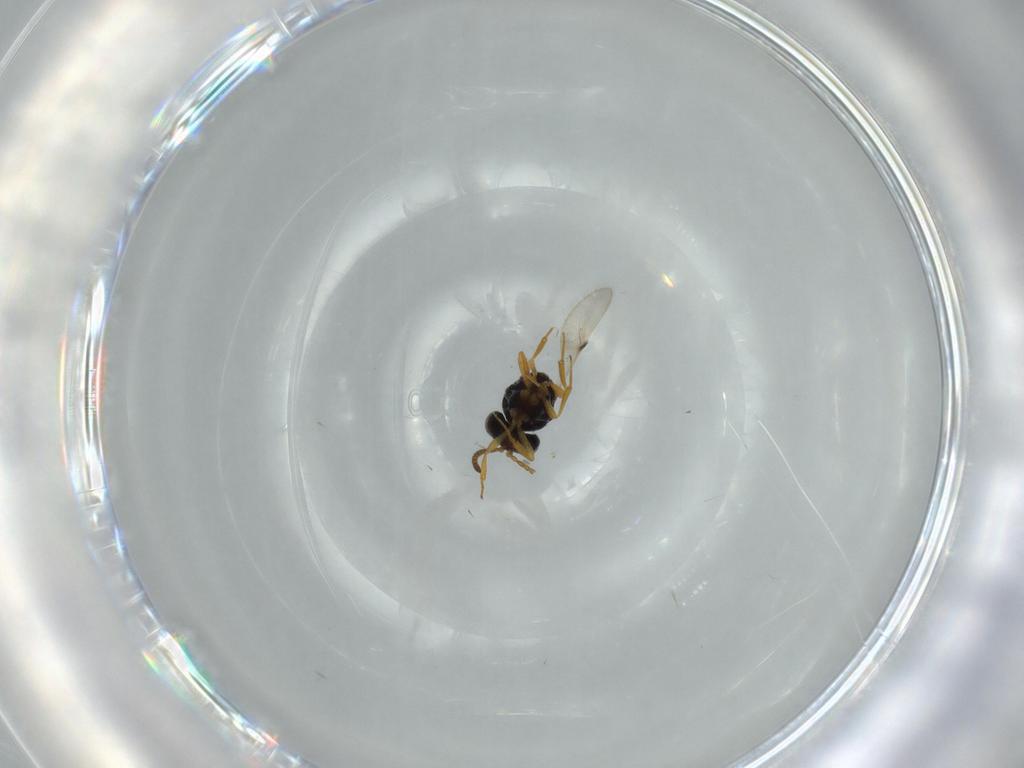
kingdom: Animalia
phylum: Arthropoda
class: Insecta
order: Hymenoptera
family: Scelionidae
